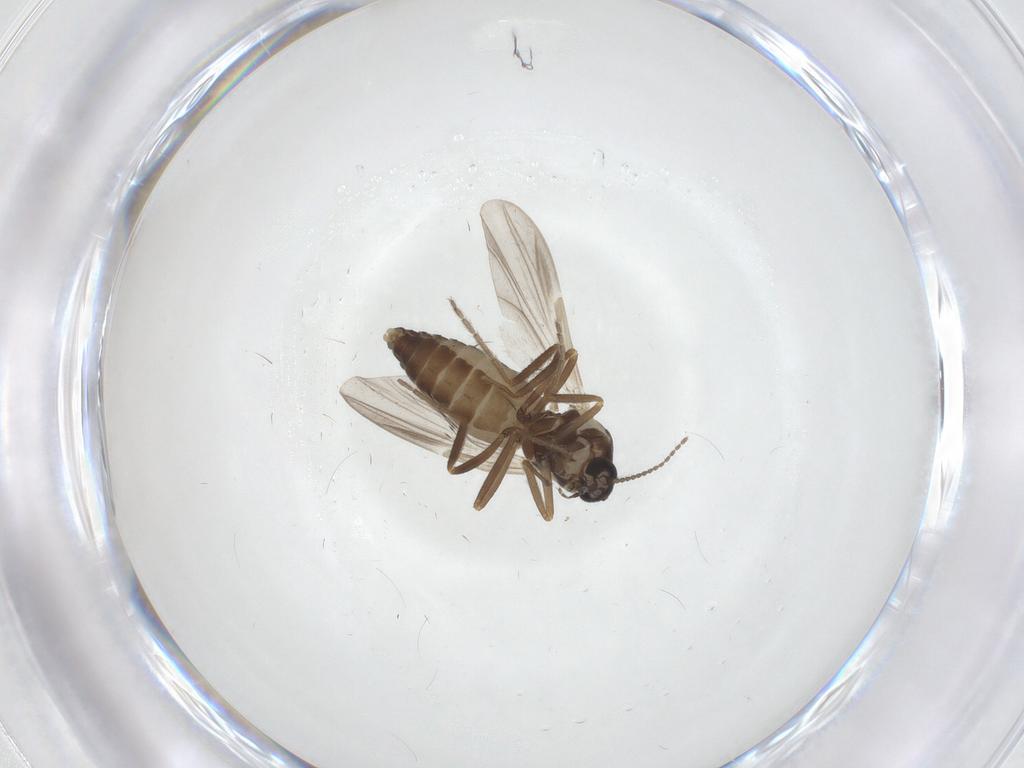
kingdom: Animalia
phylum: Arthropoda
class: Insecta
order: Diptera
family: Ceratopogonidae
